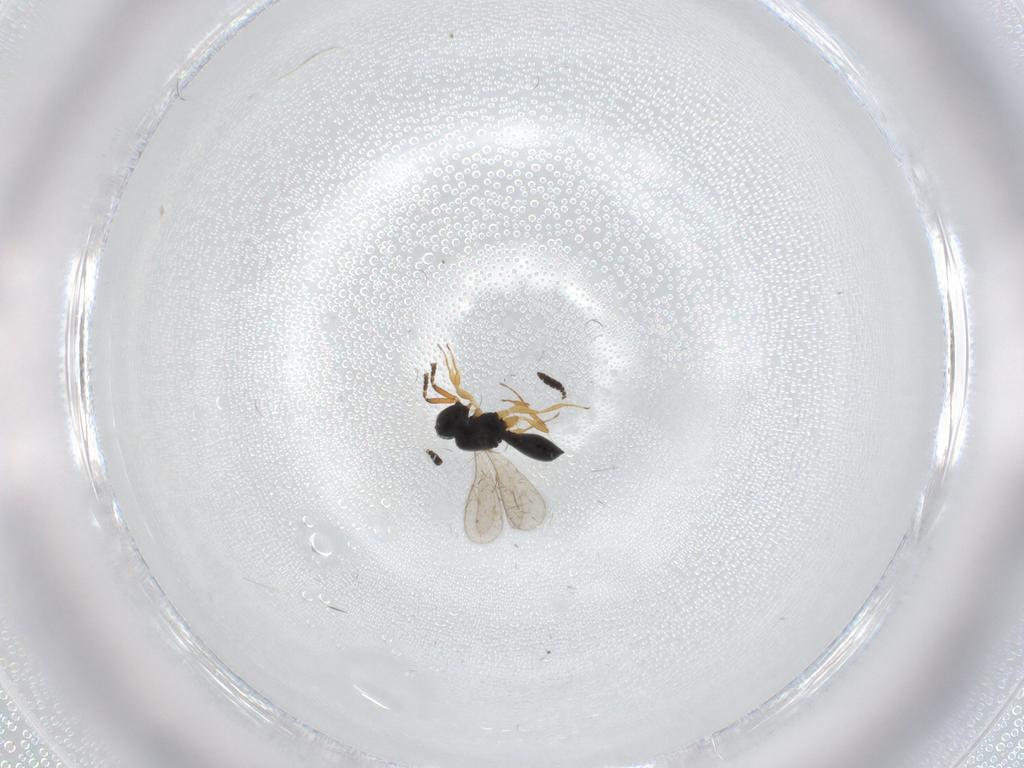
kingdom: Animalia
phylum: Arthropoda
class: Insecta
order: Hymenoptera
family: Scelionidae
